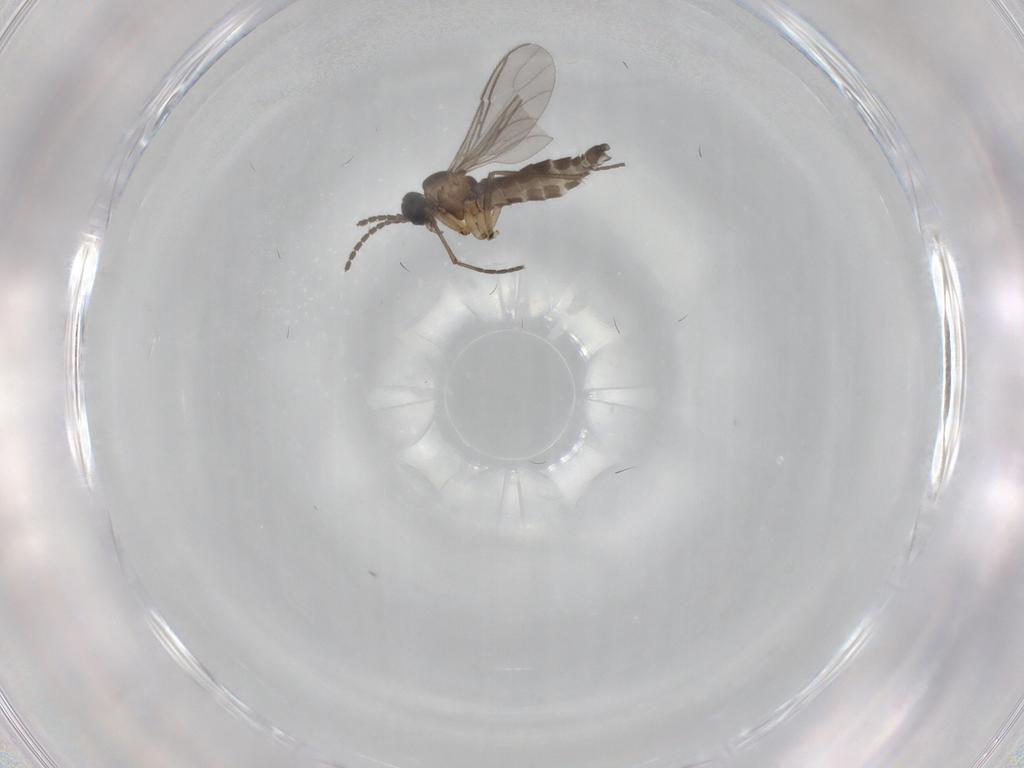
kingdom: Animalia
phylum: Arthropoda
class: Insecta
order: Diptera
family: Sciaridae
